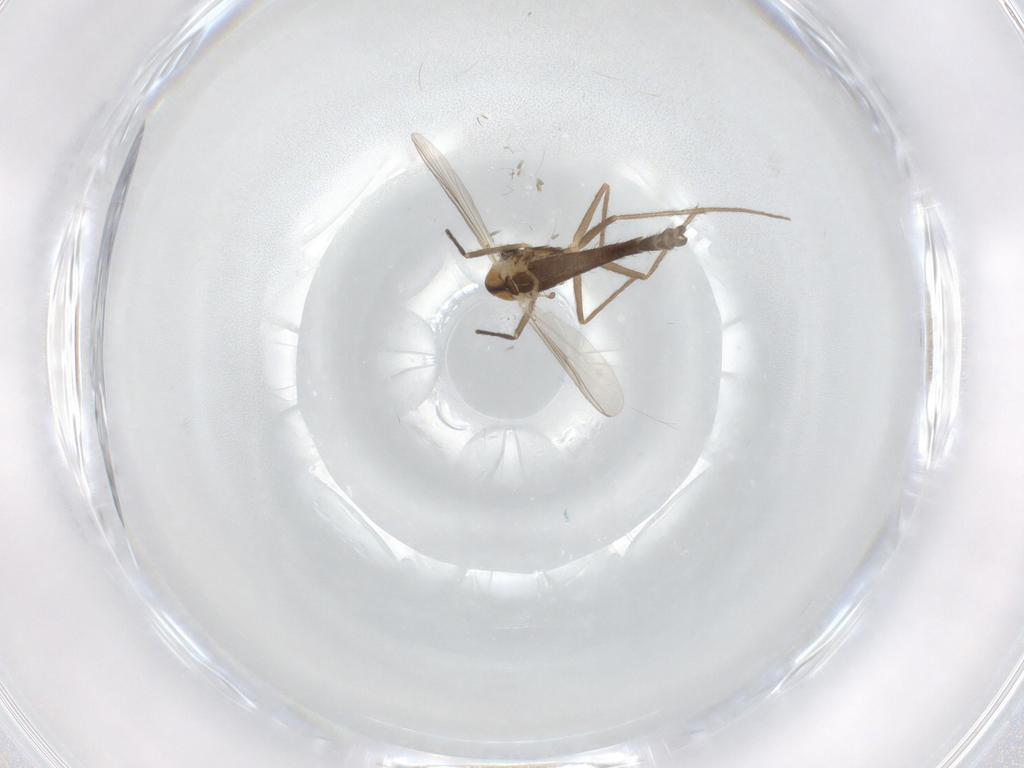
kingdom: Animalia
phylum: Arthropoda
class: Insecta
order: Diptera
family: Chironomidae
